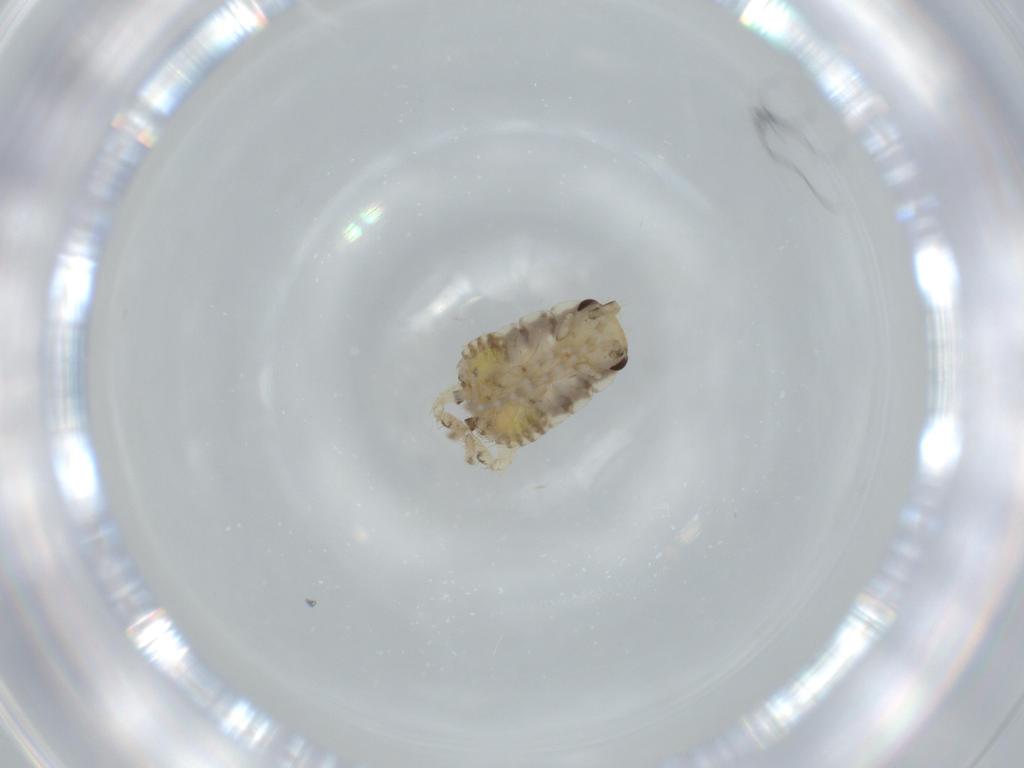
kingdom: Animalia
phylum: Arthropoda
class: Insecta
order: Blattodea
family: Ectobiidae
